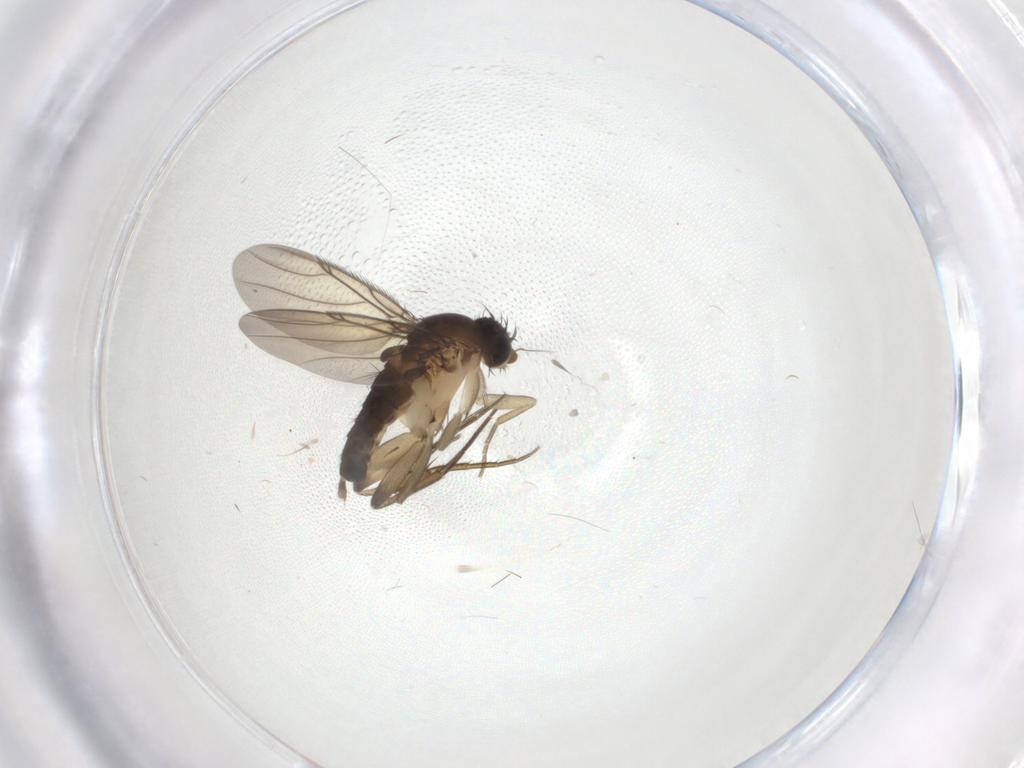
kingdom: Animalia
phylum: Arthropoda
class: Insecta
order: Diptera
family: Phoridae
